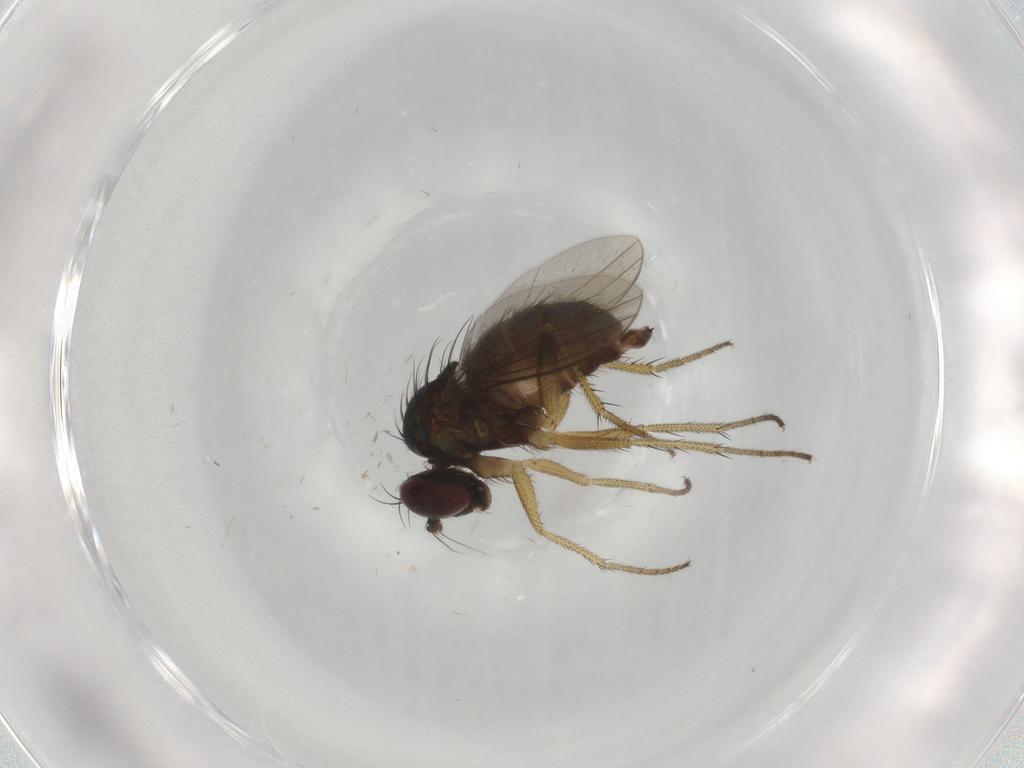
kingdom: Animalia
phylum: Arthropoda
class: Insecta
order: Diptera
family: Dolichopodidae
